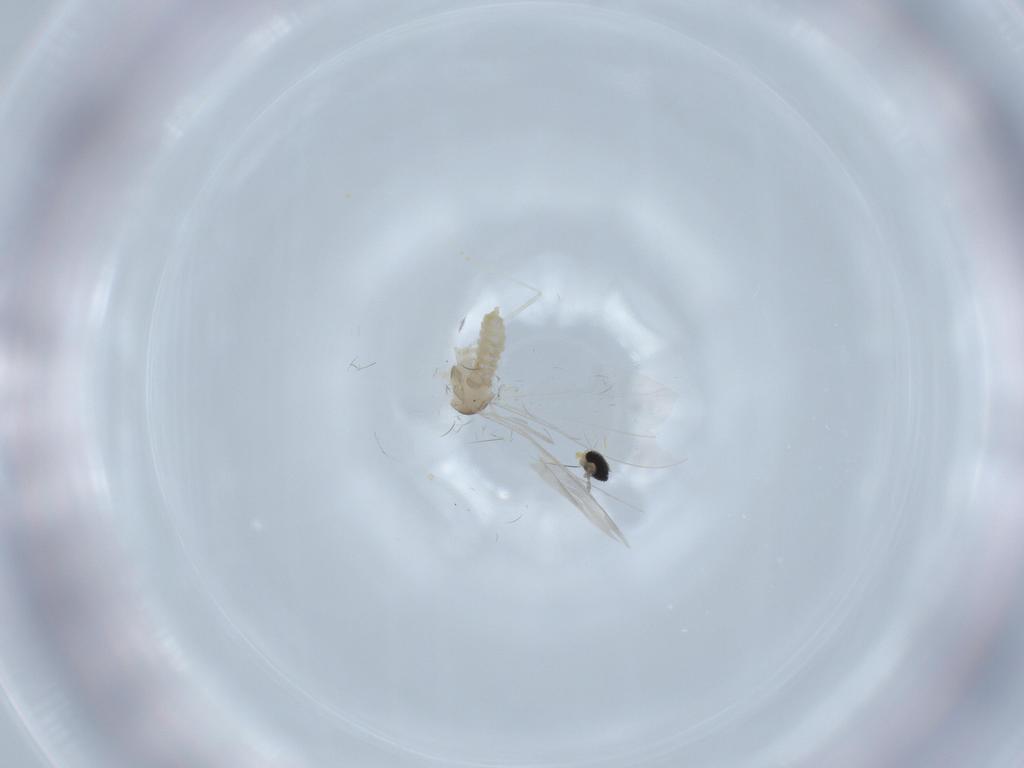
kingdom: Animalia
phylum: Arthropoda
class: Insecta
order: Diptera
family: Cecidomyiidae
